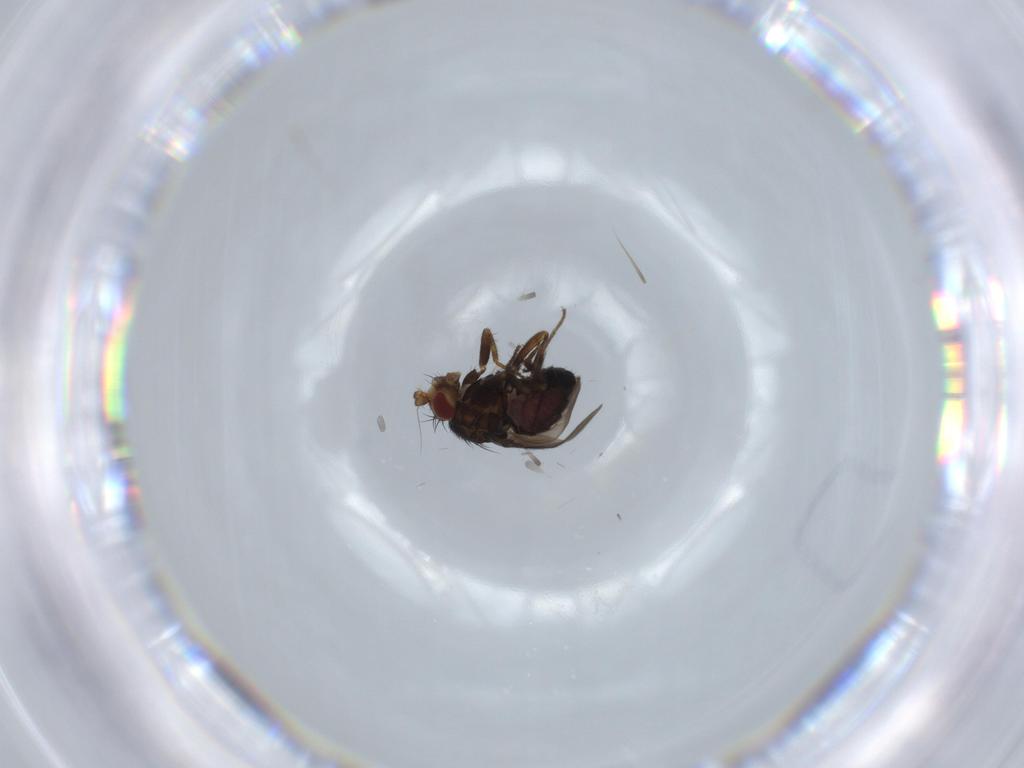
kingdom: Animalia
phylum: Arthropoda
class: Insecta
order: Diptera
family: Limoniidae
